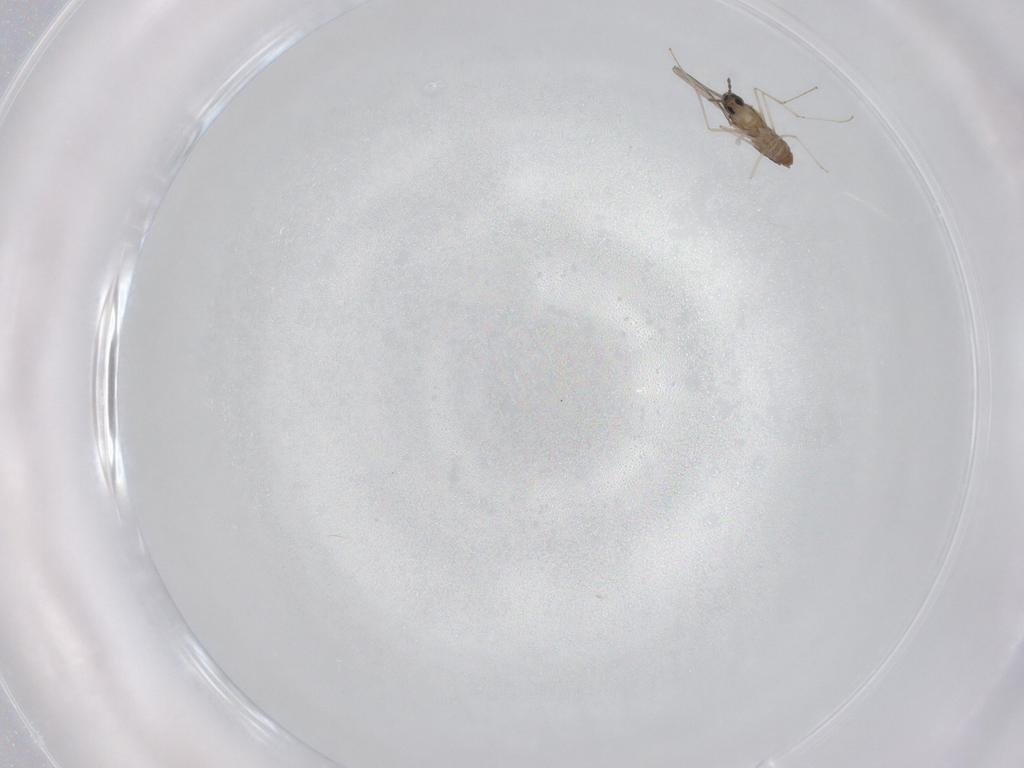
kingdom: Animalia
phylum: Arthropoda
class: Insecta
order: Diptera
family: Cecidomyiidae
